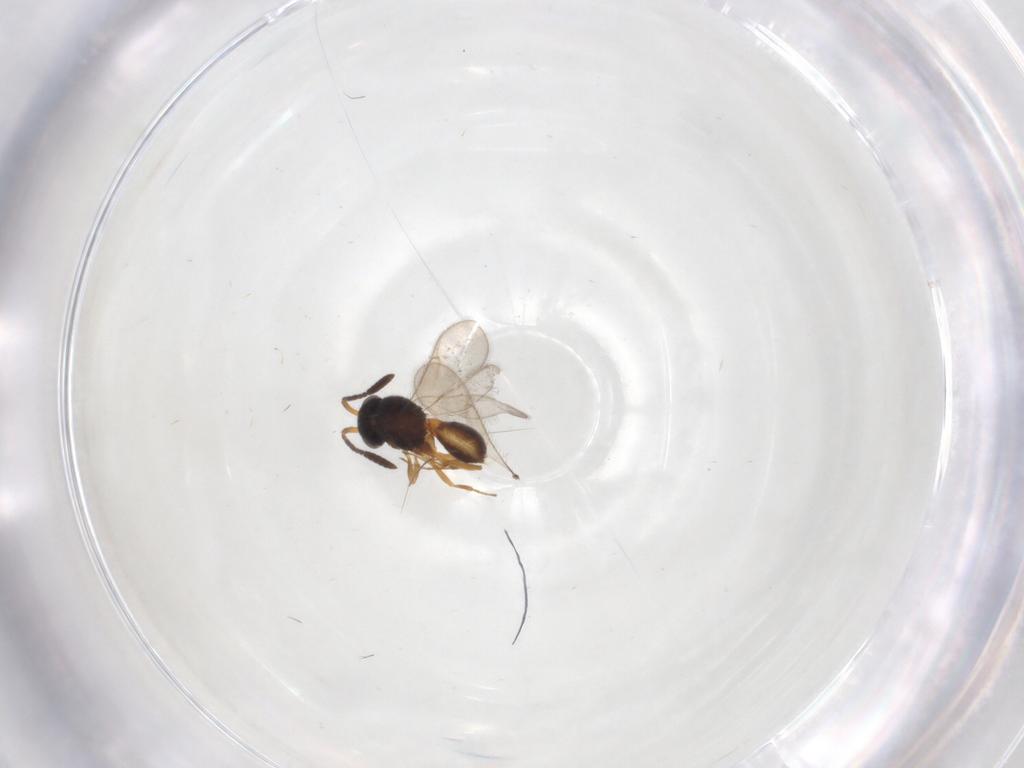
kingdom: Animalia
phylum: Arthropoda
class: Insecta
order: Hymenoptera
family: Scelionidae
